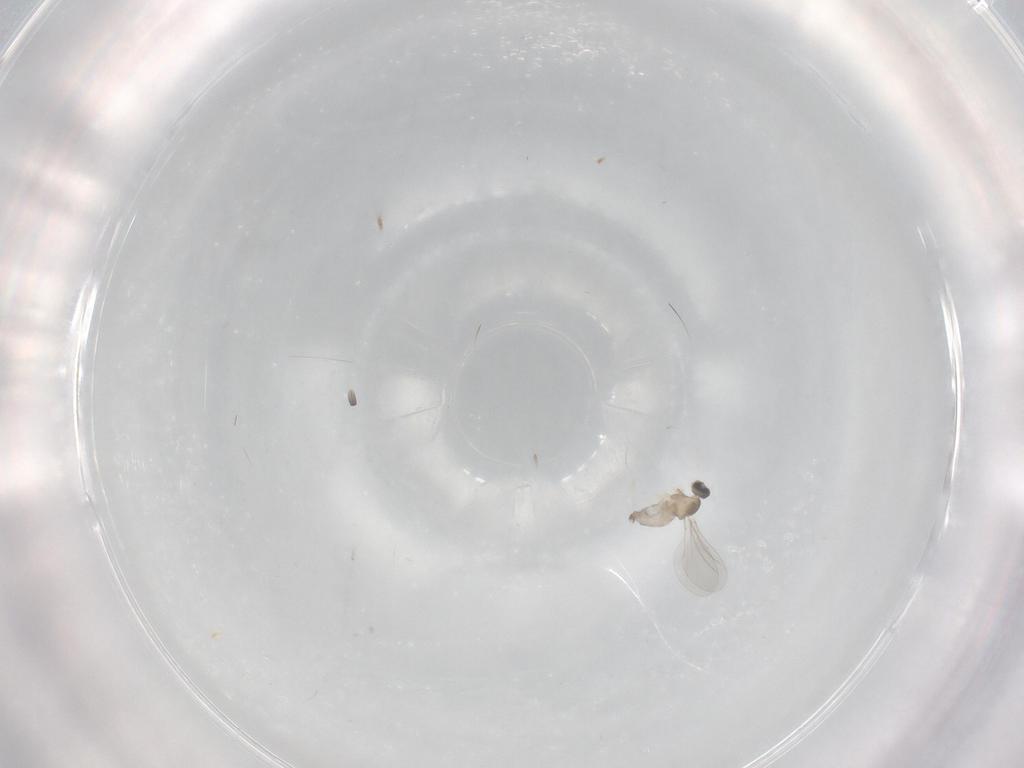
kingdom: Animalia
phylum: Arthropoda
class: Insecta
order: Diptera
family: Cecidomyiidae
